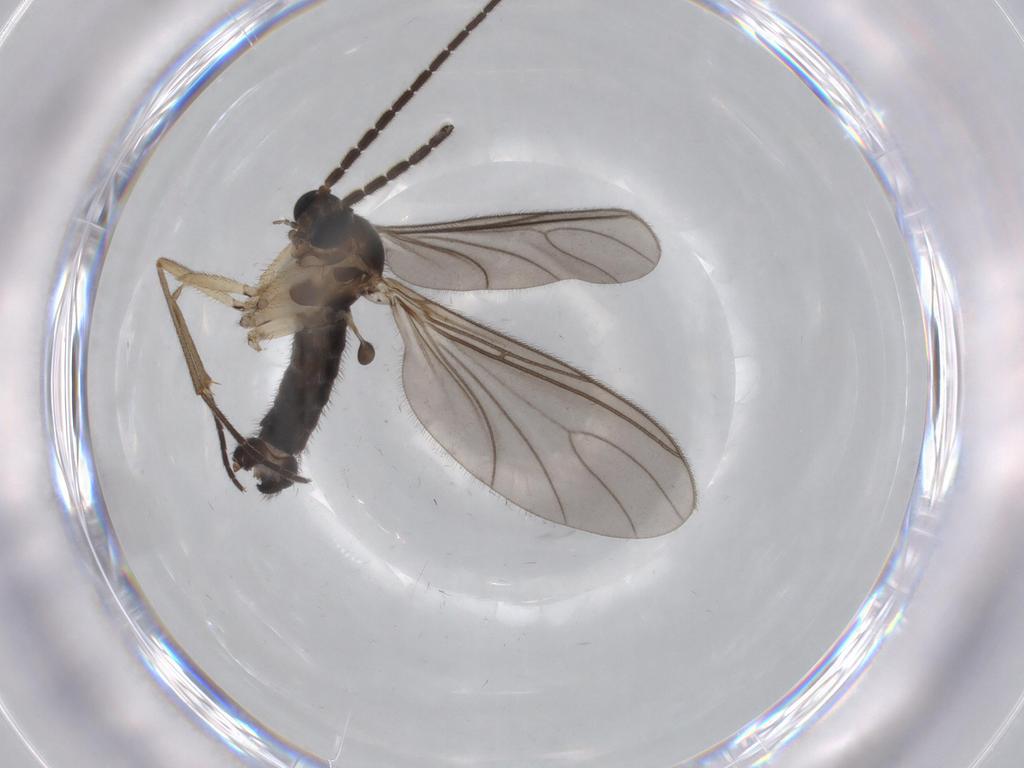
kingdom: Animalia
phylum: Arthropoda
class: Insecta
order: Diptera
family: Sciaridae
